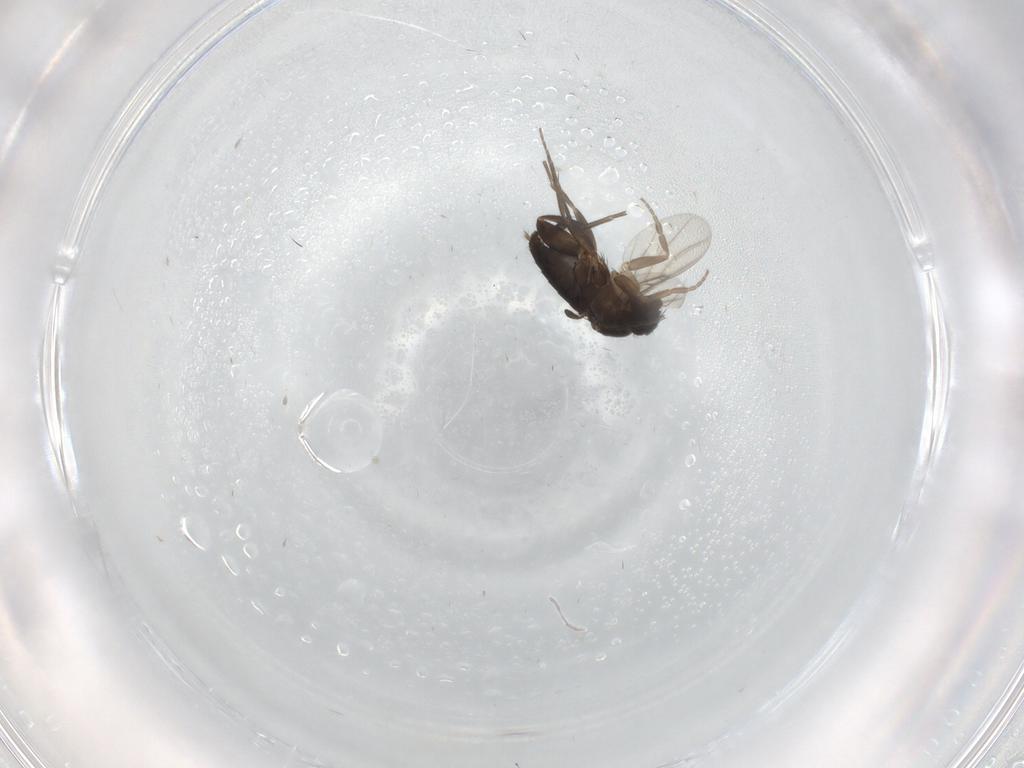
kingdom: Animalia
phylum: Arthropoda
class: Insecta
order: Diptera
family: Phoridae
